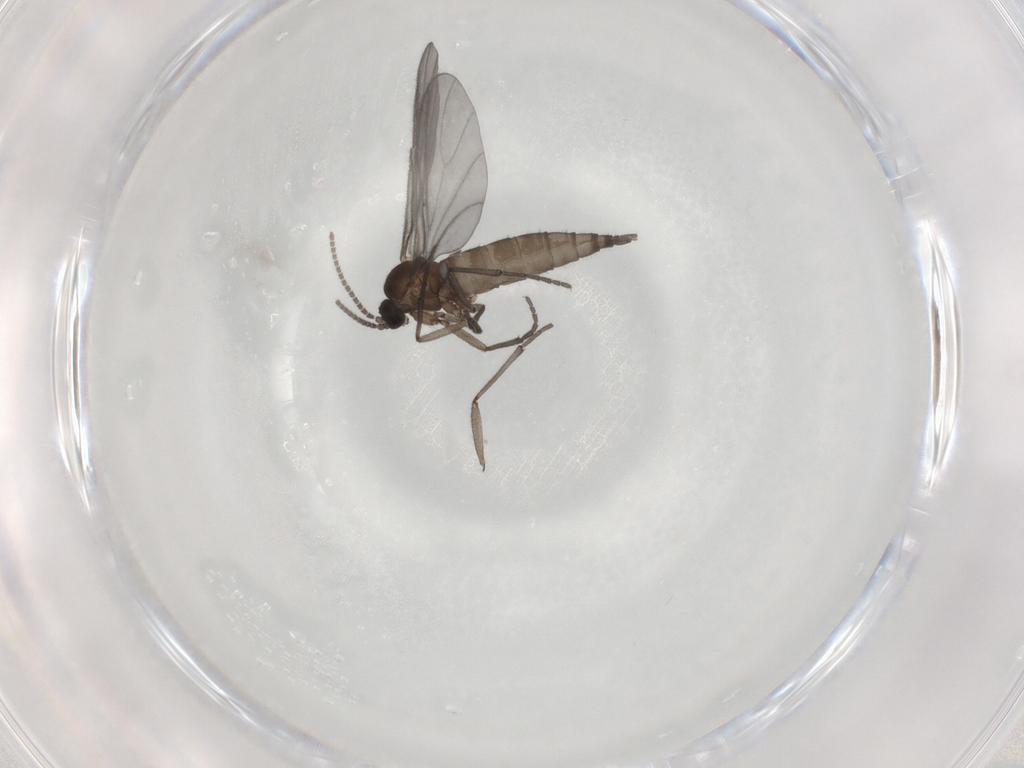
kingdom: Animalia
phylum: Arthropoda
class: Insecta
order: Diptera
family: Sciaridae
